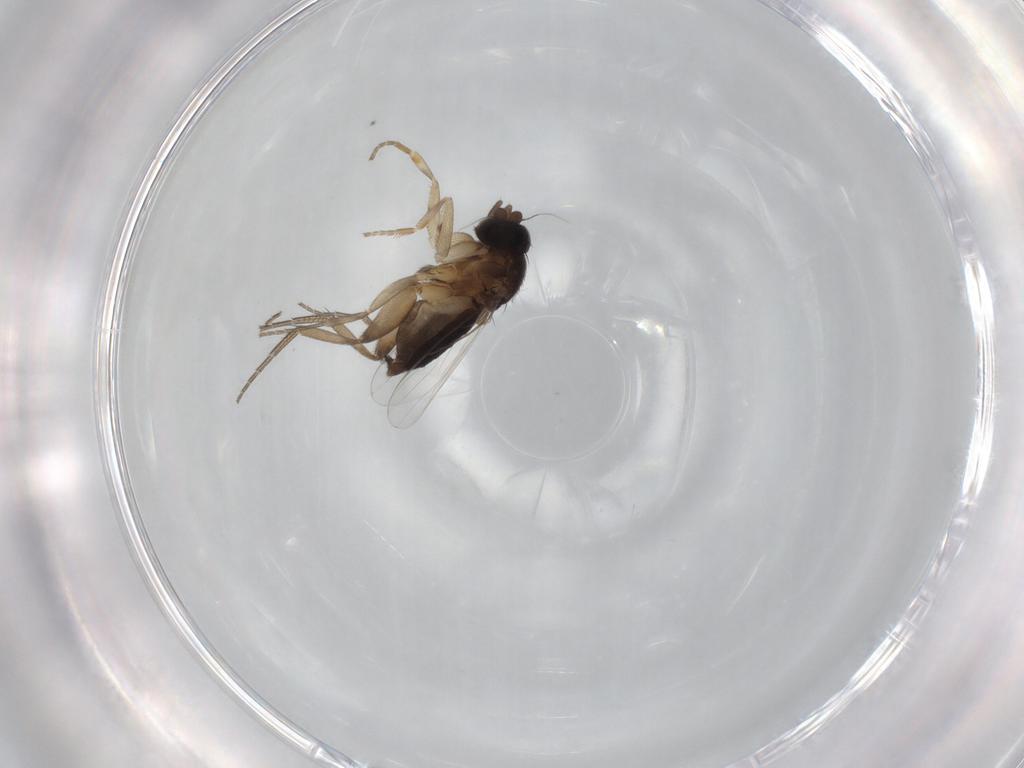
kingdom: Animalia
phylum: Arthropoda
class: Insecta
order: Diptera
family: Phoridae
